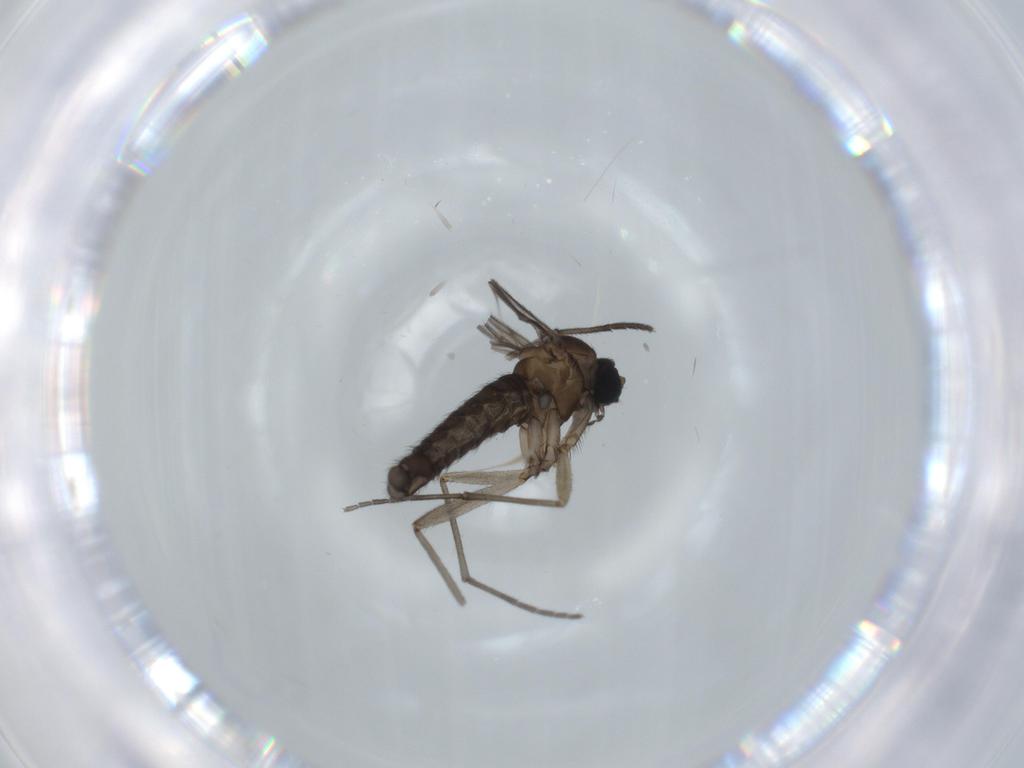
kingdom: Animalia
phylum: Arthropoda
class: Insecta
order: Diptera
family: Sciaridae
